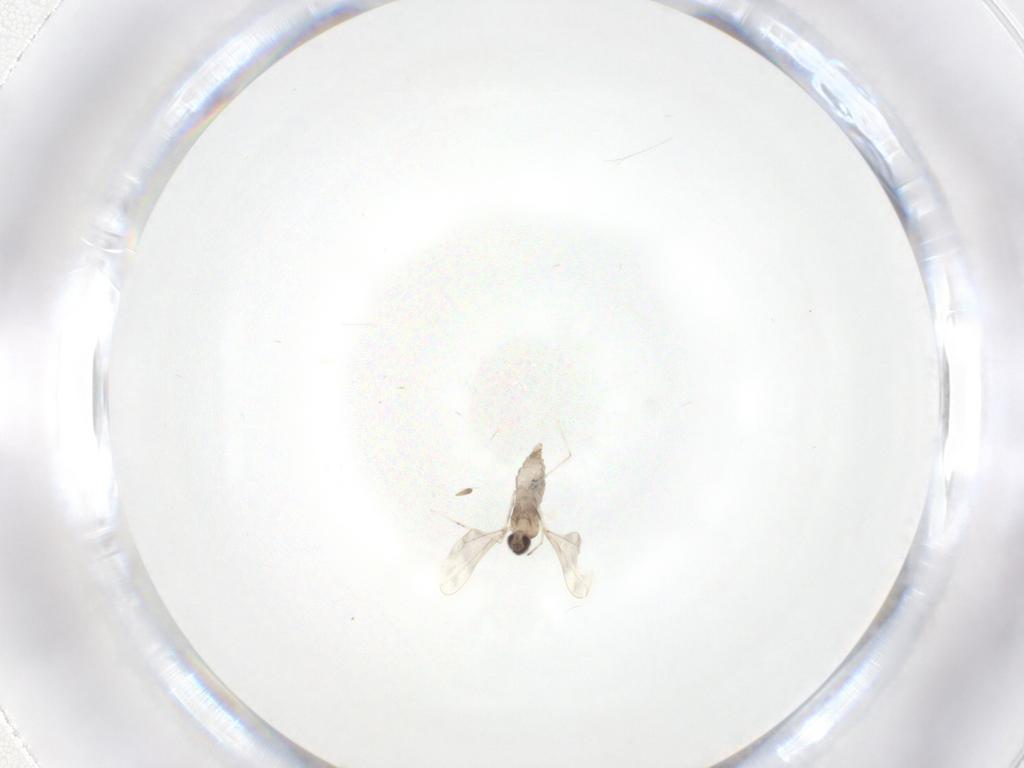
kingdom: Animalia
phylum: Arthropoda
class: Insecta
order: Diptera
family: Cecidomyiidae
